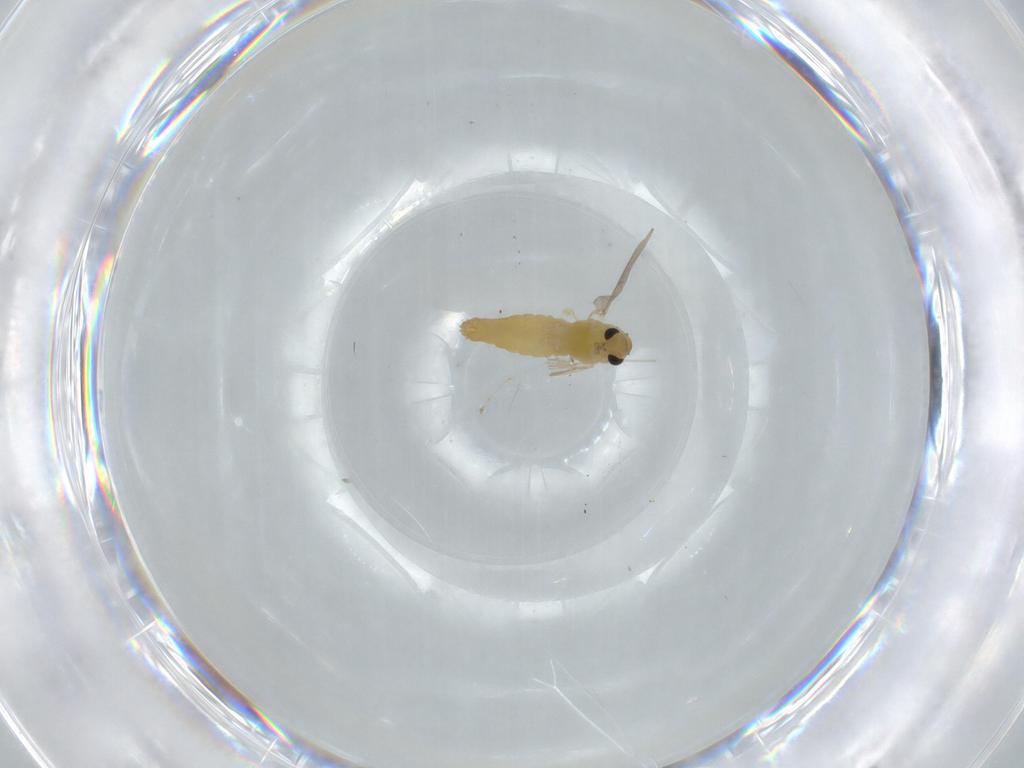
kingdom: Animalia
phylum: Arthropoda
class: Insecta
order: Diptera
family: Chironomidae
